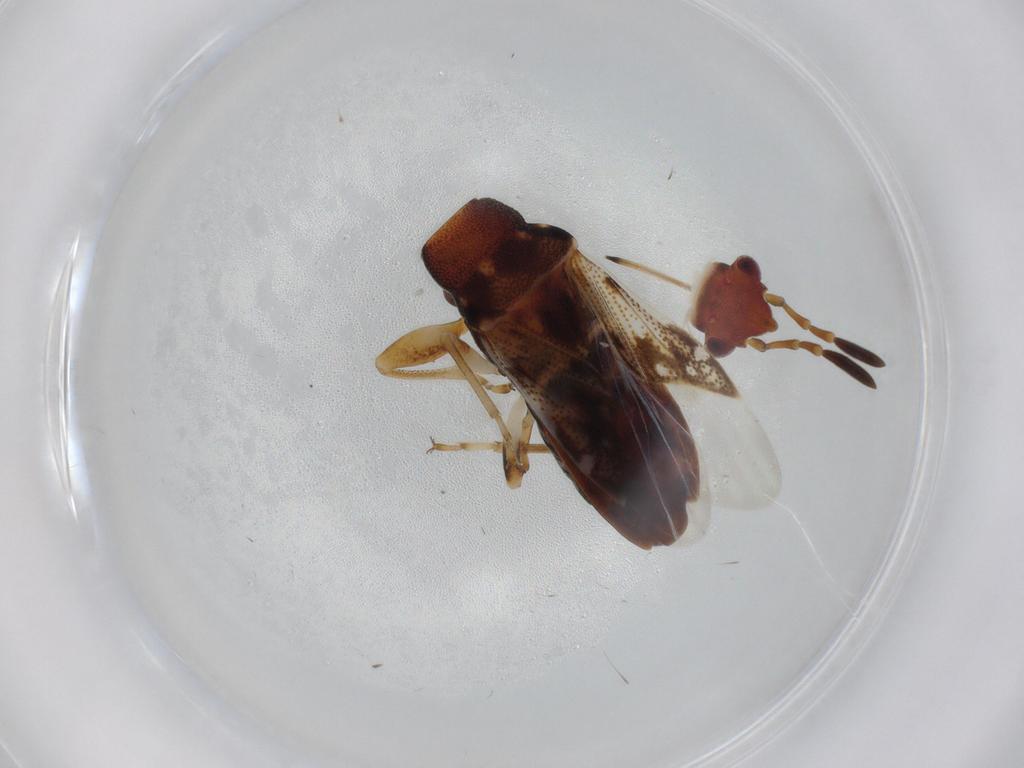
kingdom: Animalia
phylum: Arthropoda
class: Insecta
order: Hemiptera
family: Rhyparochromidae
